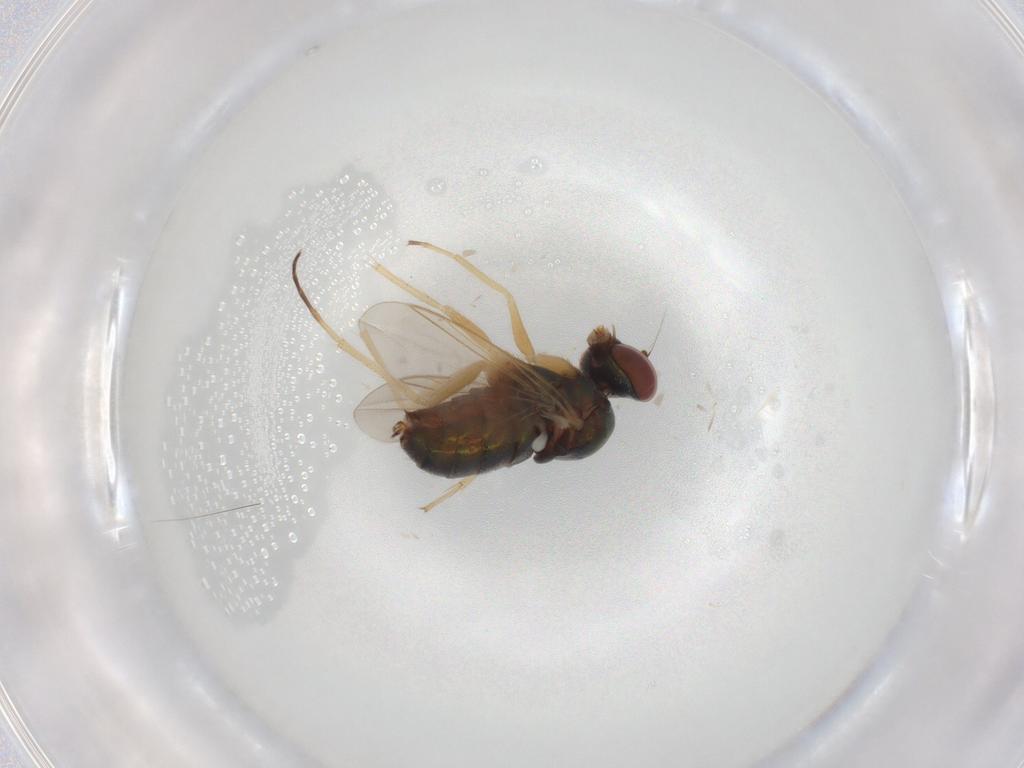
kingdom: Animalia
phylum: Arthropoda
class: Insecta
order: Diptera
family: Dolichopodidae
